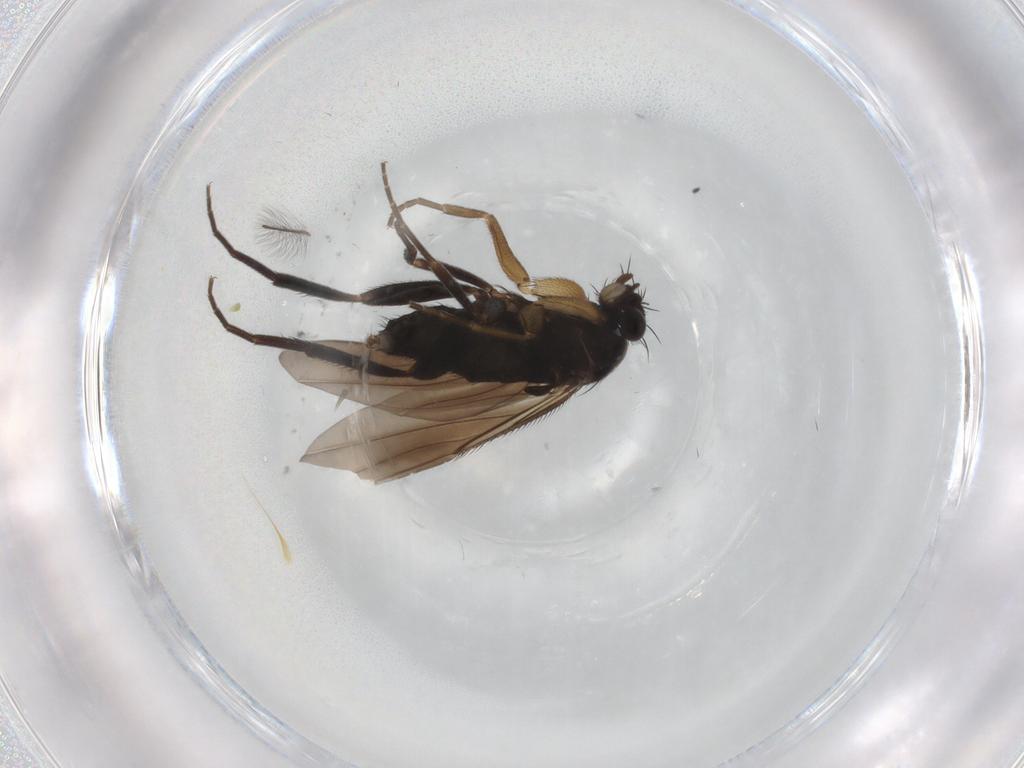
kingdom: Animalia
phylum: Arthropoda
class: Insecta
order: Diptera
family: Phoridae
